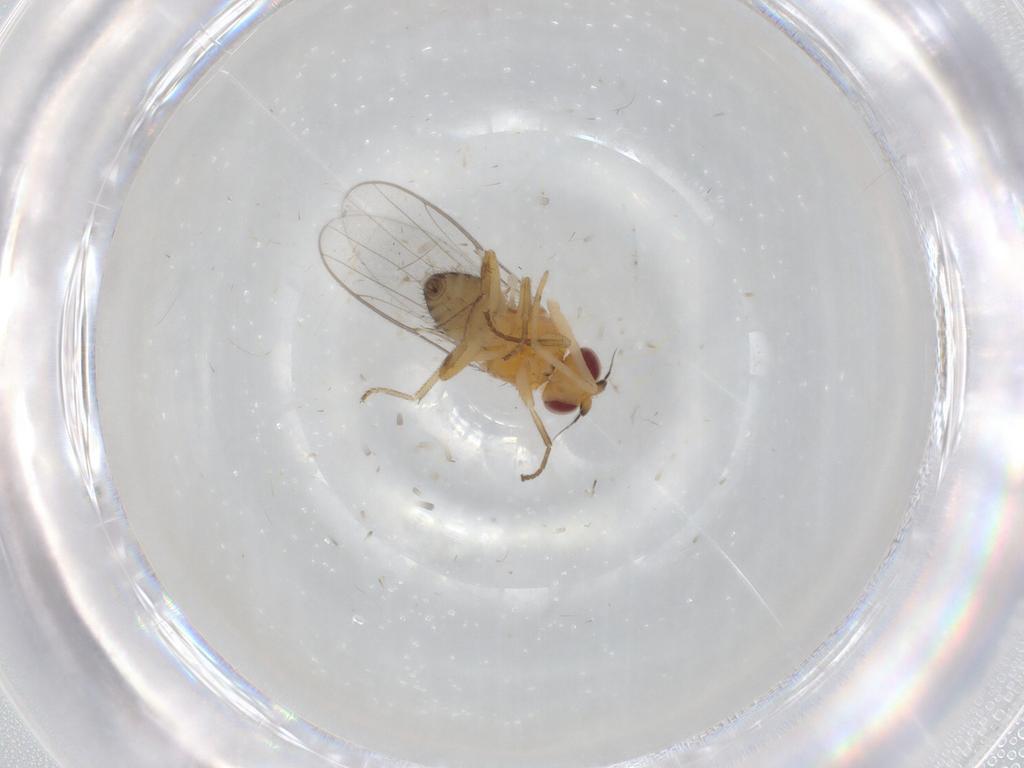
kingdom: Animalia
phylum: Arthropoda
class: Insecta
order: Diptera
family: Chloropidae
